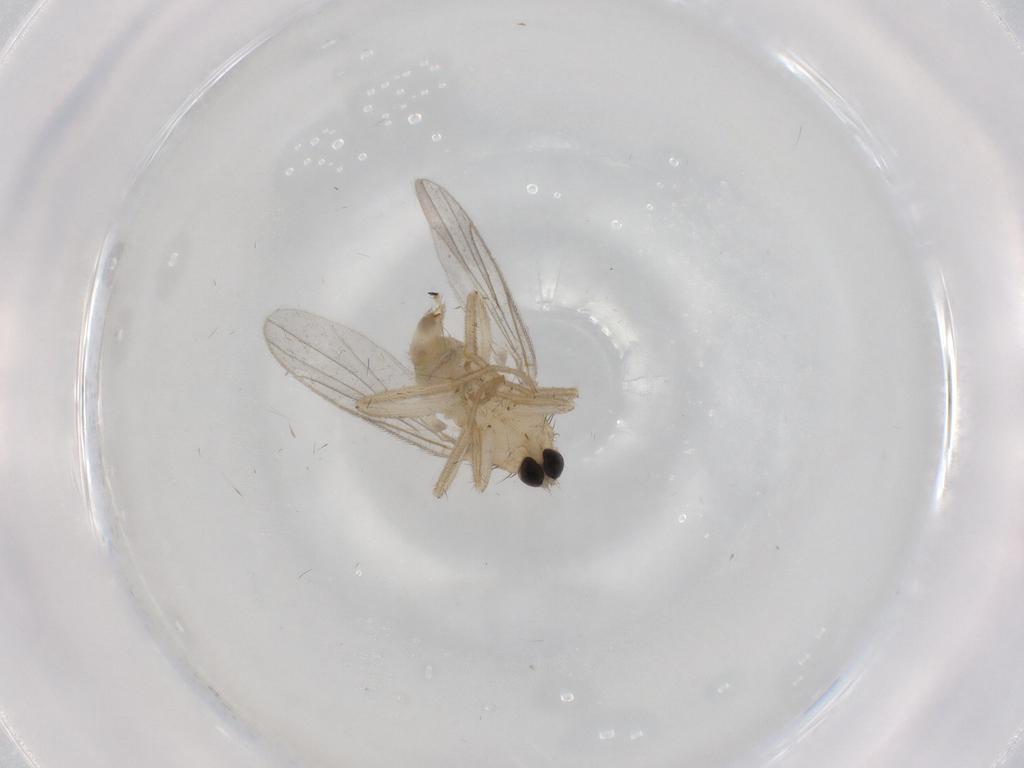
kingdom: Animalia
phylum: Arthropoda
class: Insecta
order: Diptera
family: Hybotidae
